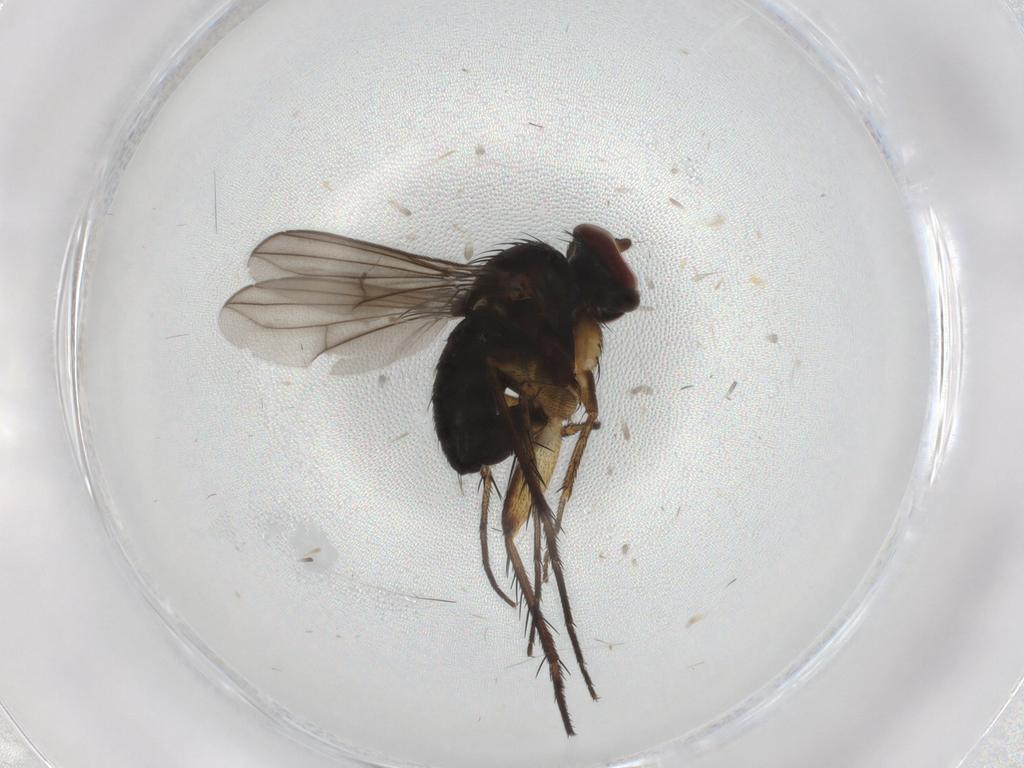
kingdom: Animalia
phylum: Arthropoda
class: Insecta
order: Diptera
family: Dolichopodidae
